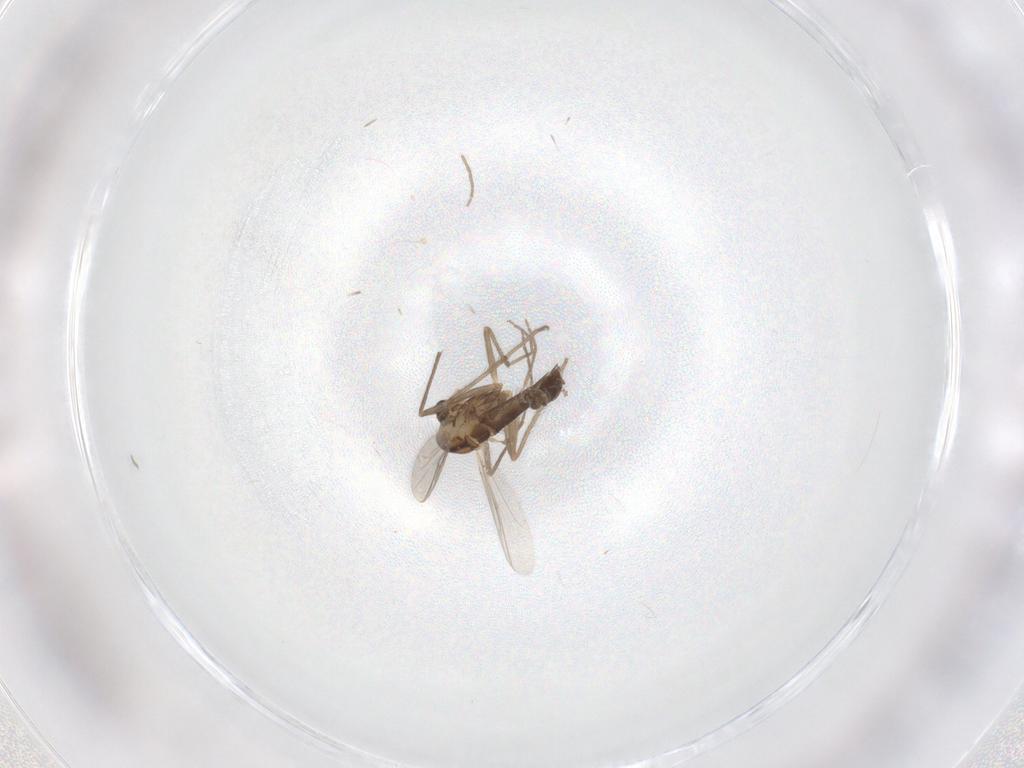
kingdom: Animalia
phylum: Arthropoda
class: Insecta
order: Diptera
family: Chironomidae
